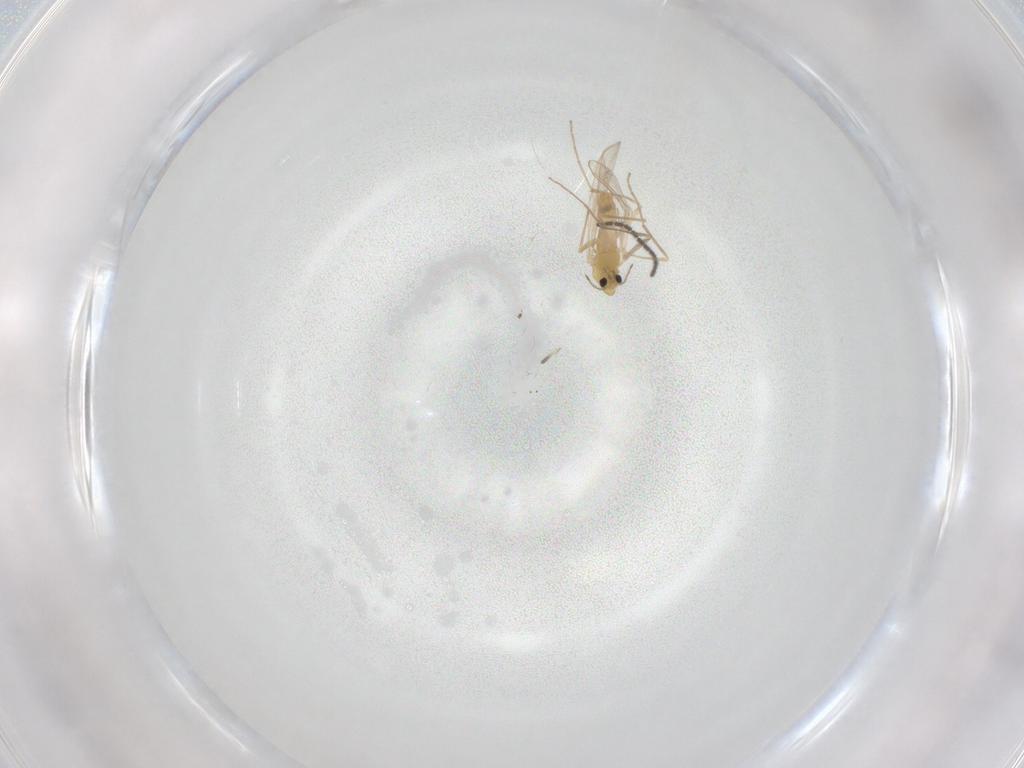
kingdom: Animalia
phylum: Arthropoda
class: Insecta
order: Diptera
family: Chironomidae
